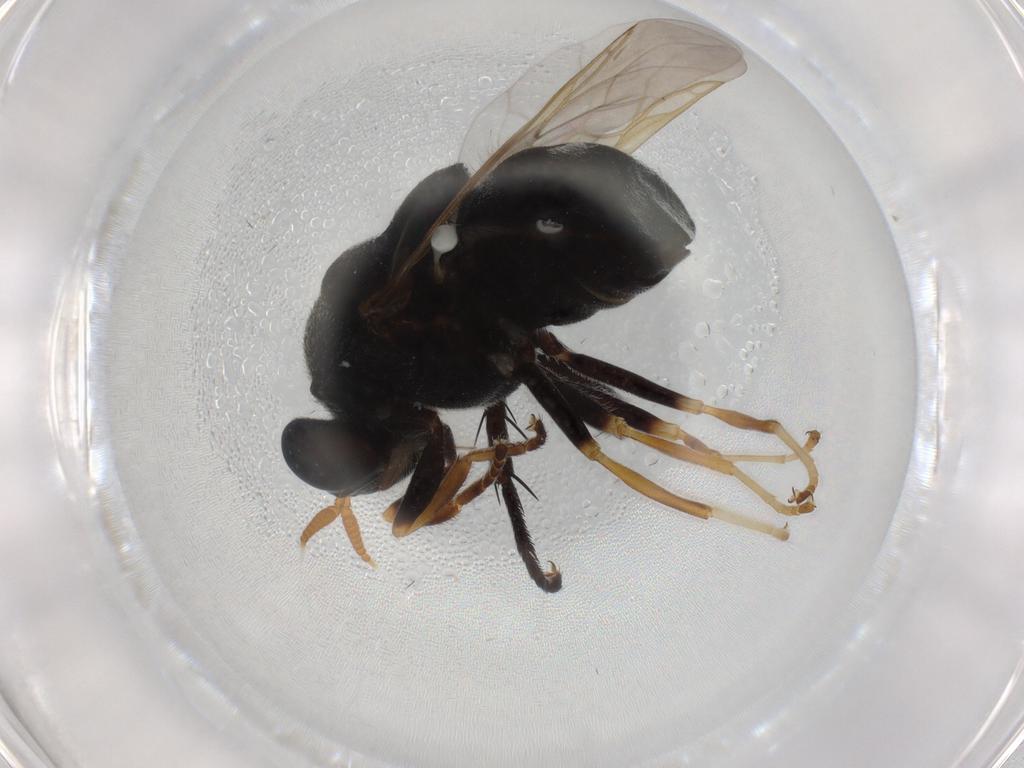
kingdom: Animalia
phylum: Arthropoda
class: Insecta
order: Diptera
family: Stratiomyidae
